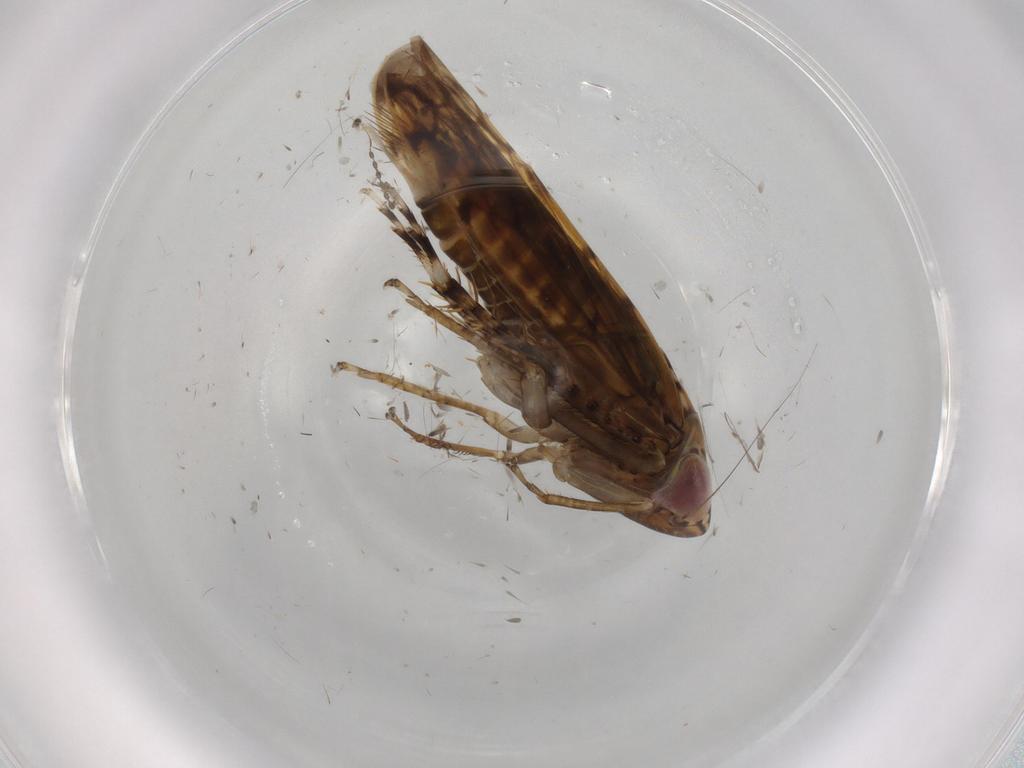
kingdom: Animalia
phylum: Arthropoda
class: Insecta
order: Hemiptera
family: Cicadellidae
